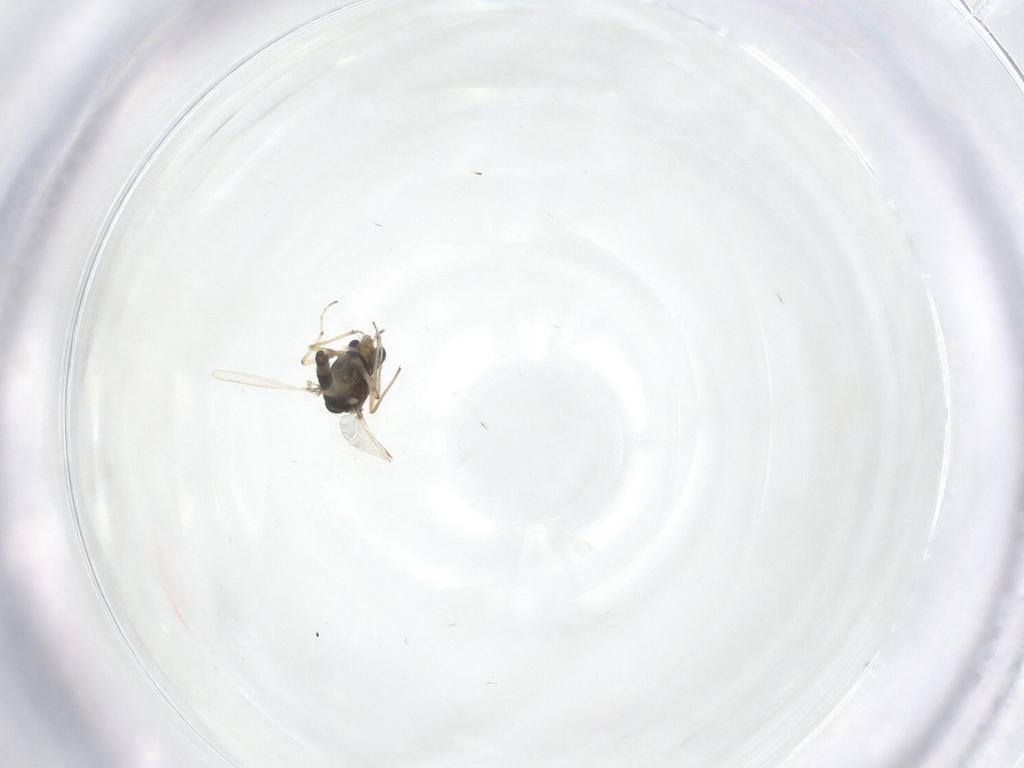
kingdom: Animalia
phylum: Arthropoda
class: Insecta
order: Diptera
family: Chironomidae
